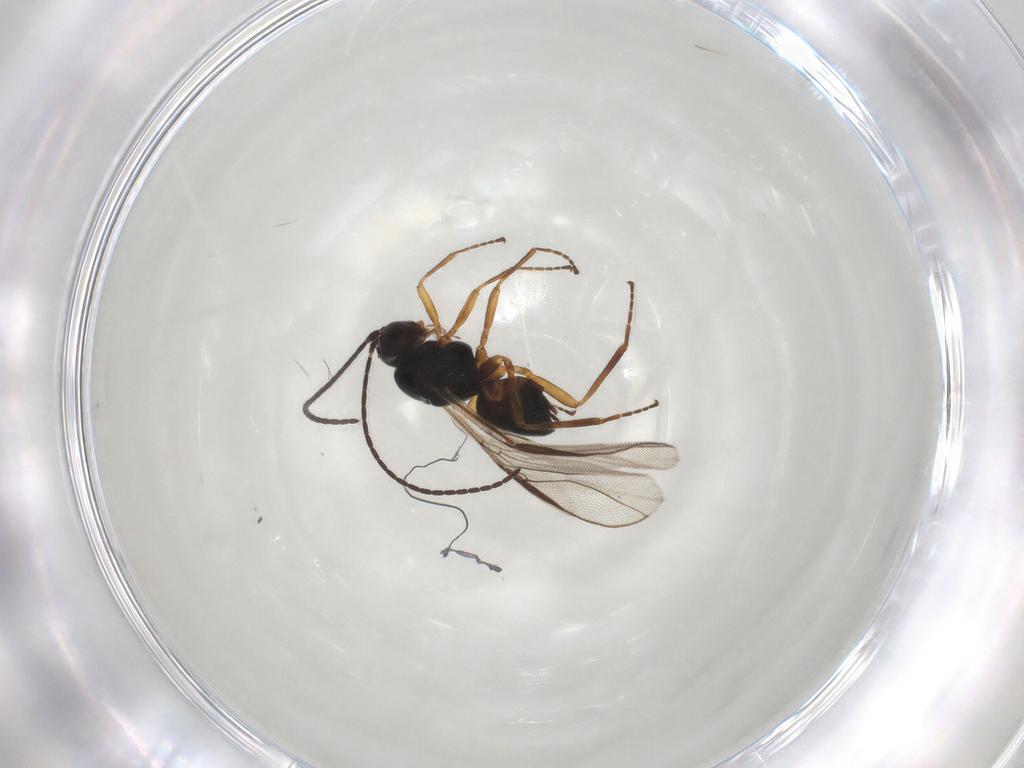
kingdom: Animalia
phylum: Arthropoda
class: Insecta
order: Hymenoptera
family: Braconidae
